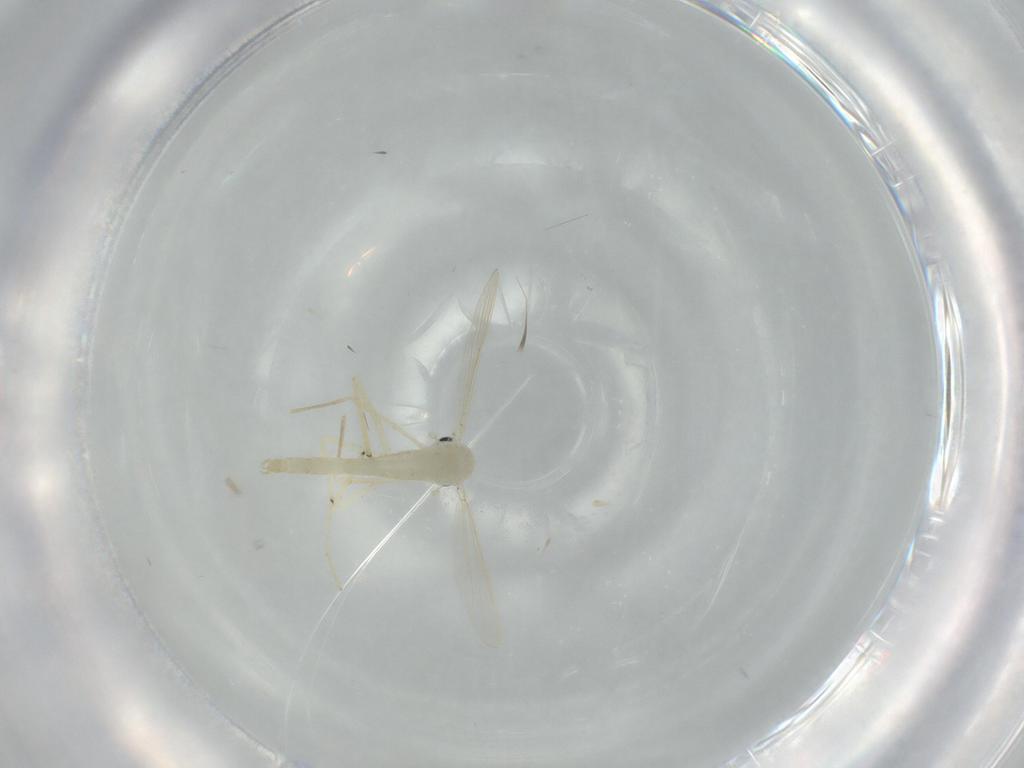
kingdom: Animalia
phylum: Arthropoda
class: Insecta
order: Diptera
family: Chironomidae
